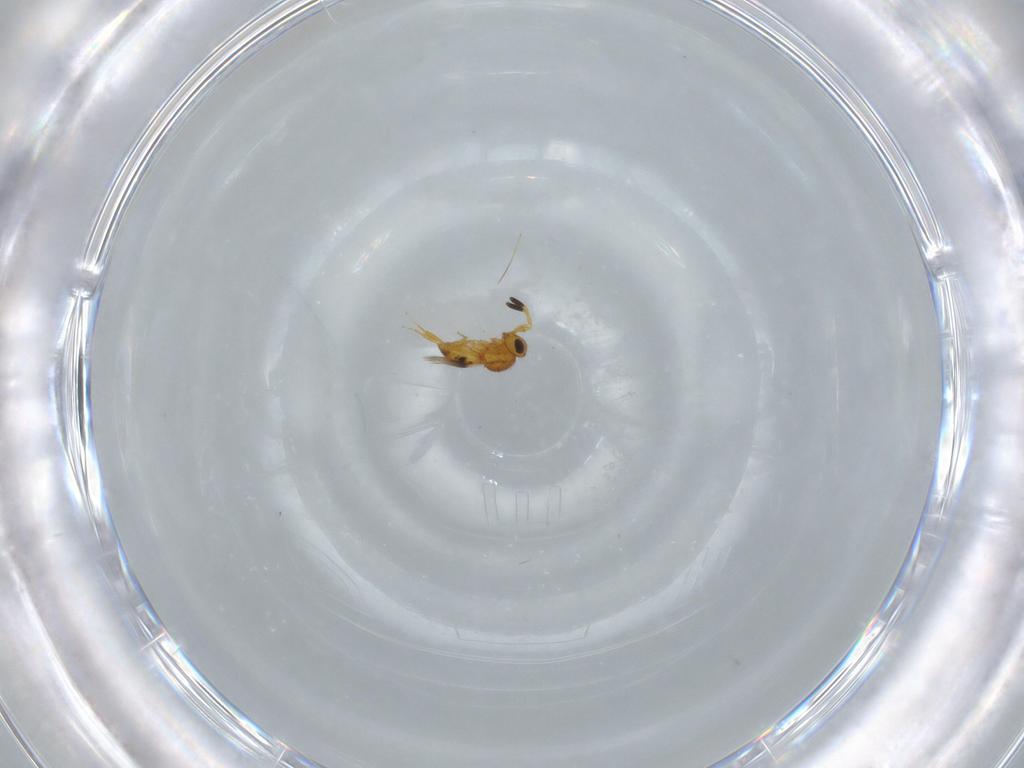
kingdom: Animalia
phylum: Arthropoda
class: Insecta
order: Hymenoptera
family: Scelionidae
